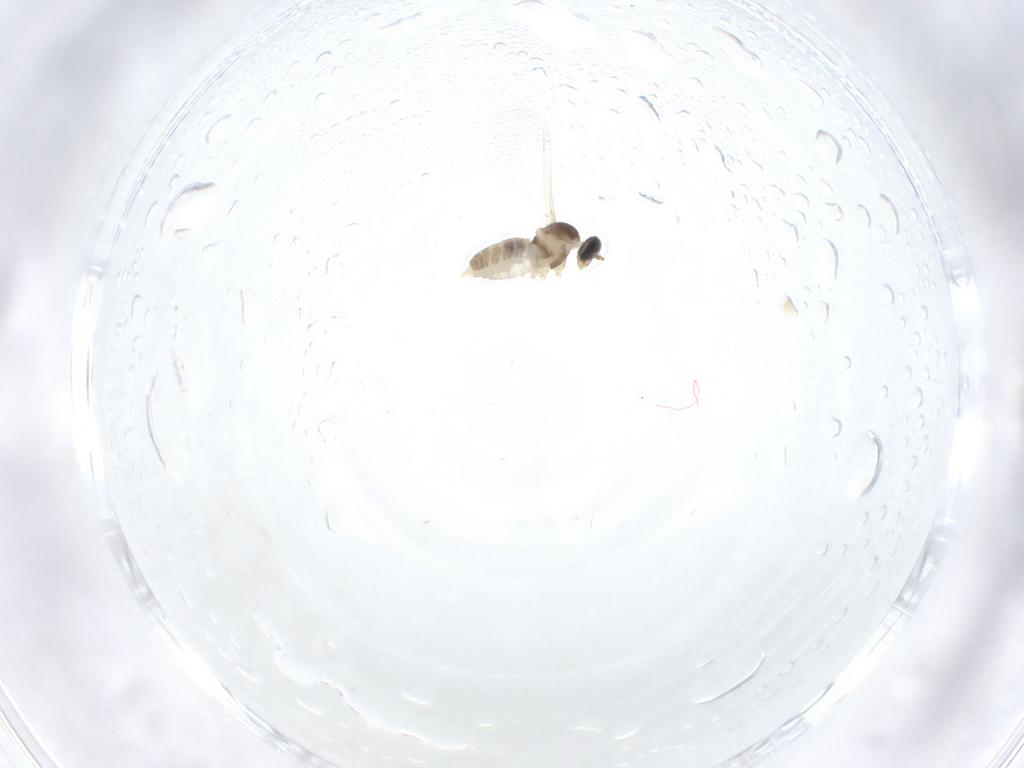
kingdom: Animalia
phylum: Arthropoda
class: Insecta
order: Diptera
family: Cecidomyiidae
